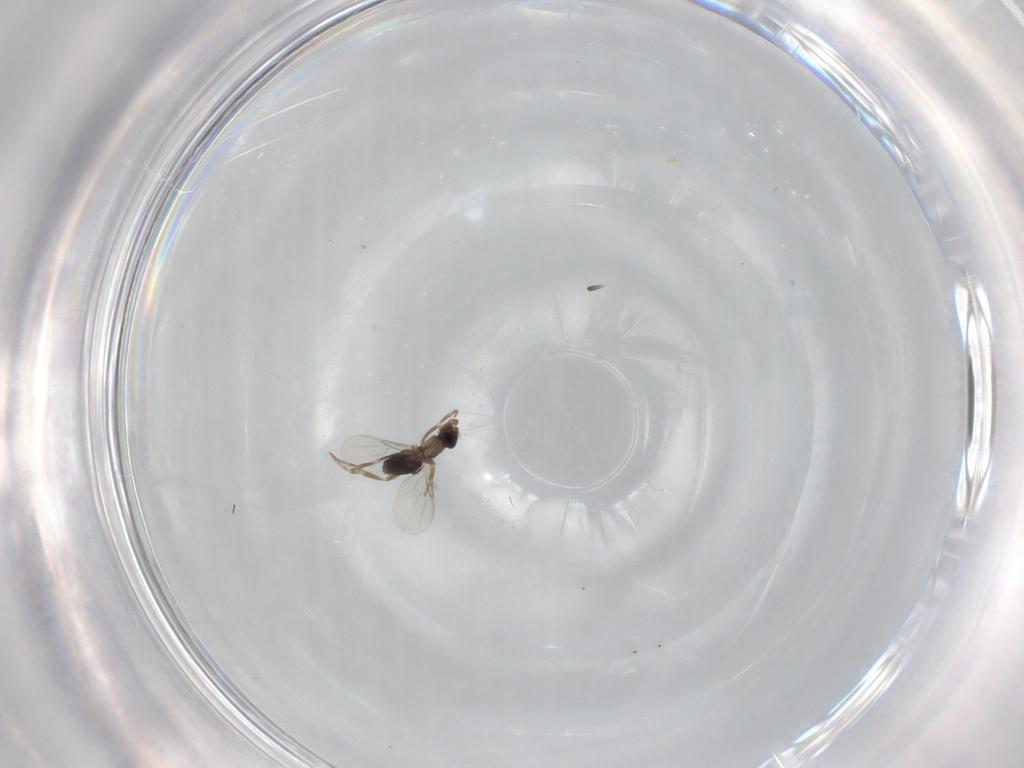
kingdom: Animalia
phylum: Arthropoda
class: Insecta
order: Diptera
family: Phoridae
